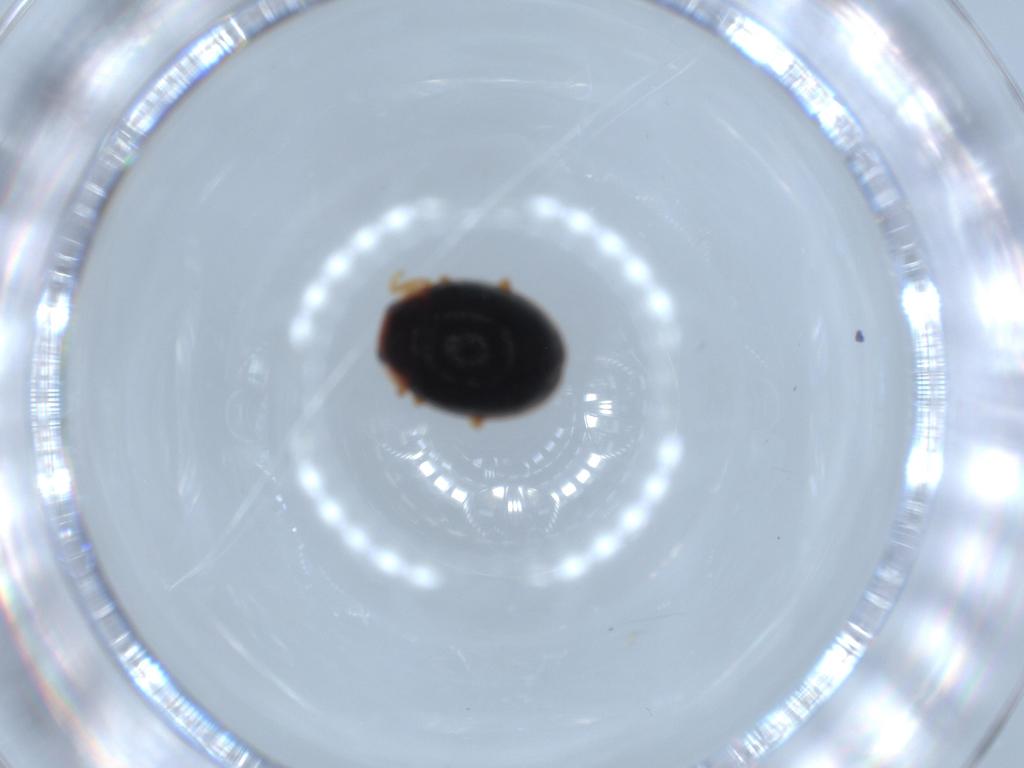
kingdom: Animalia
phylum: Arthropoda
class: Insecta
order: Coleoptera
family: Coccinellidae
